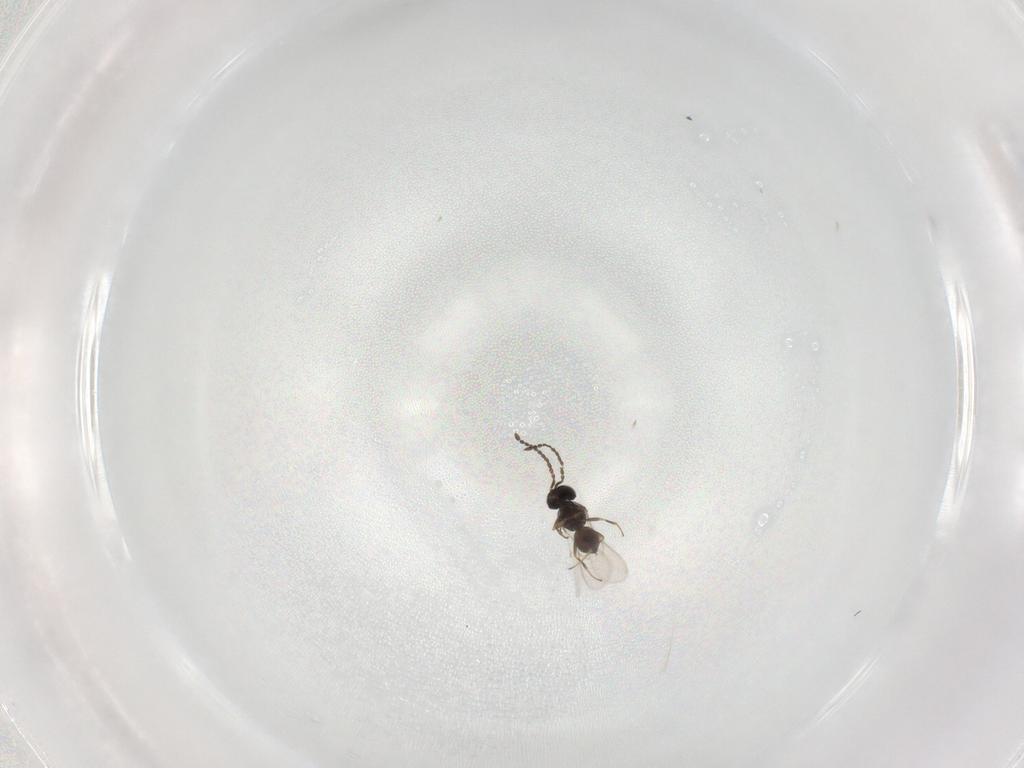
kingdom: Animalia
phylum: Arthropoda
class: Insecta
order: Hymenoptera
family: Scelionidae
